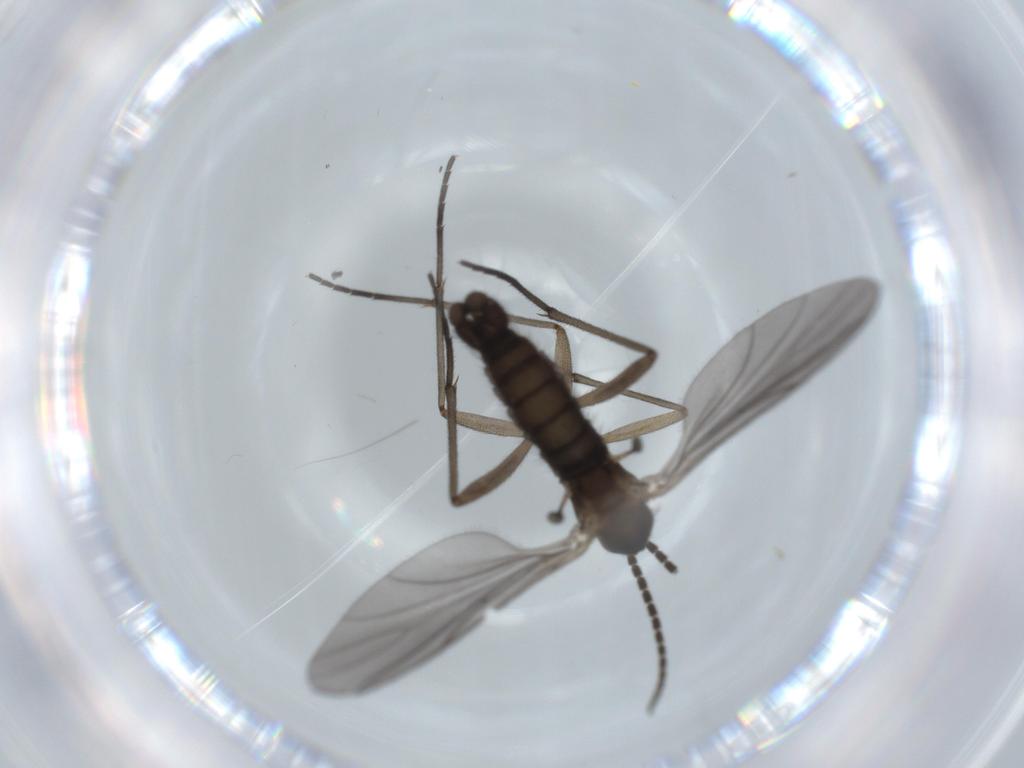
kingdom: Animalia
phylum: Arthropoda
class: Insecta
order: Diptera
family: Sciaridae
